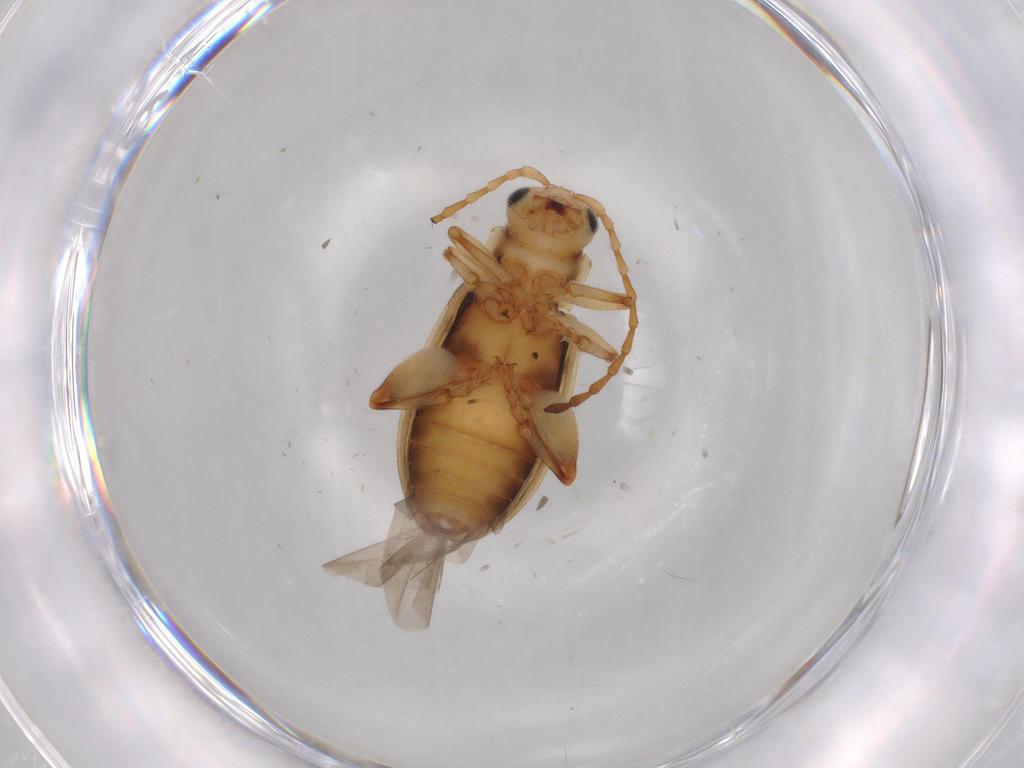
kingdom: Animalia
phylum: Arthropoda
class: Insecta
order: Coleoptera
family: Chrysomelidae
